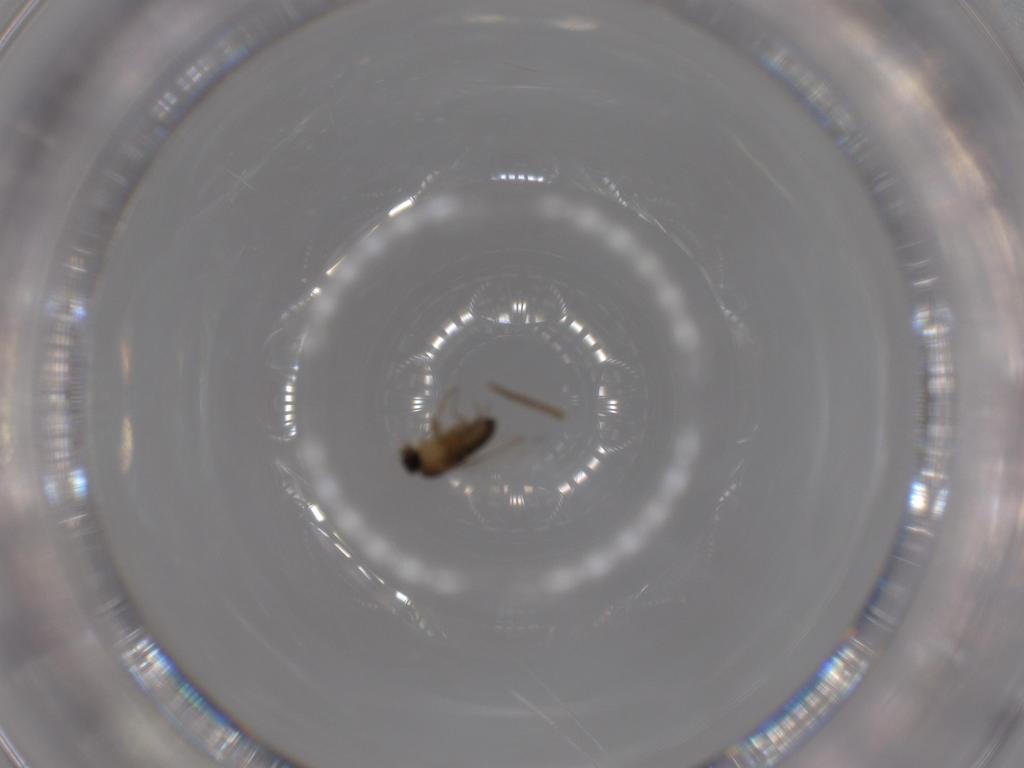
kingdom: Animalia
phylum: Arthropoda
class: Insecta
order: Diptera
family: Phoridae
